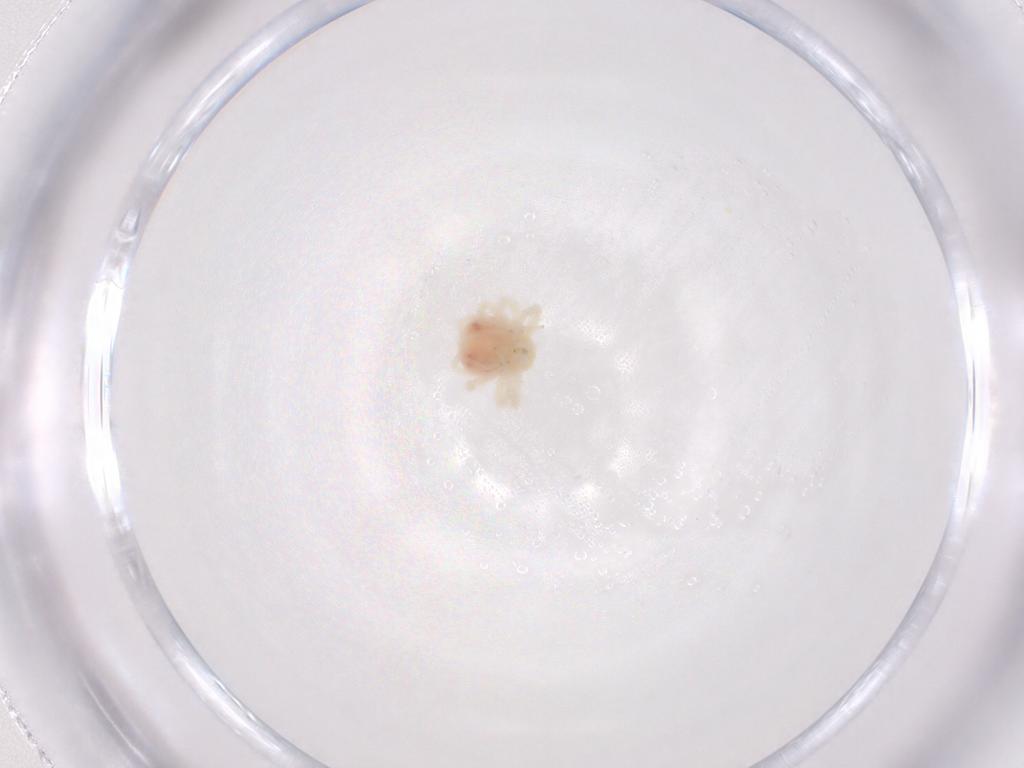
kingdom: Animalia
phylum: Arthropoda
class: Arachnida
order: Trombidiformes
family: Anystidae
